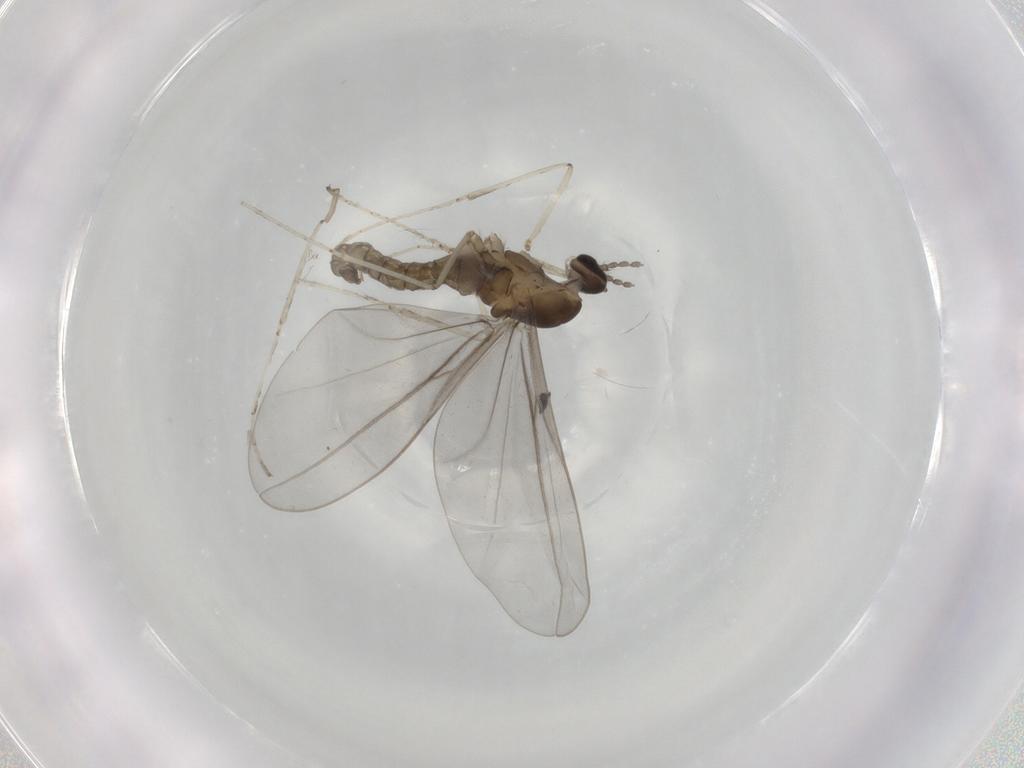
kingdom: Animalia
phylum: Arthropoda
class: Insecta
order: Diptera
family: Cecidomyiidae
